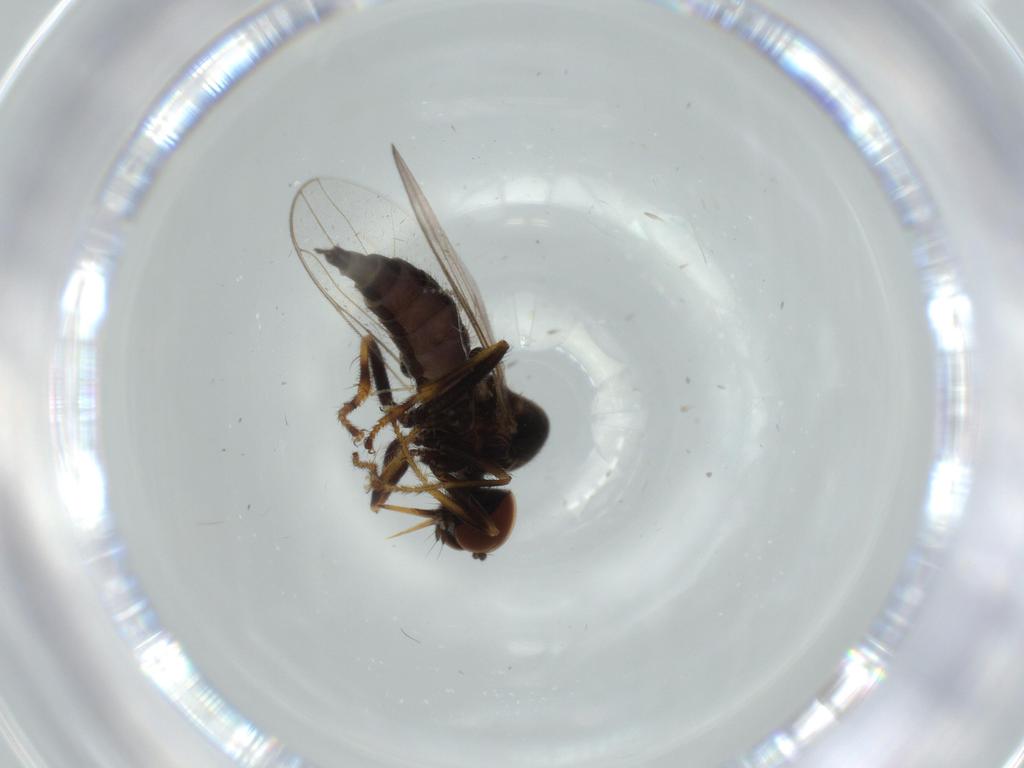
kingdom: Animalia
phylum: Arthropoda
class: Insecta
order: Diptera
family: Hybotidae
